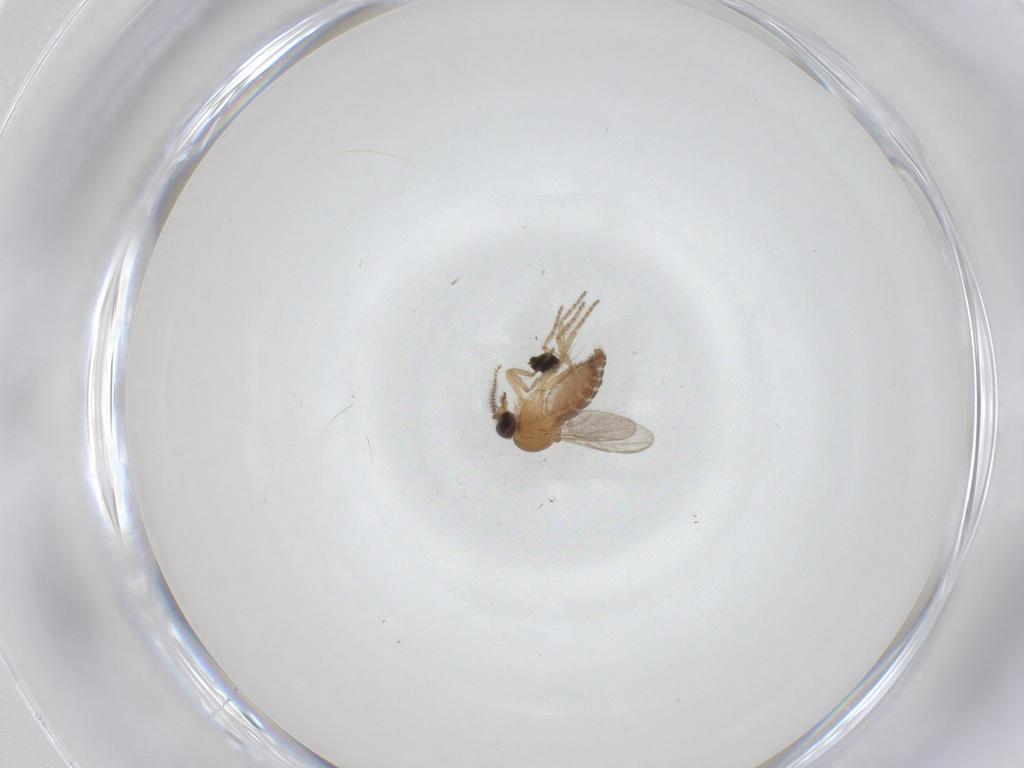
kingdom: Animalia
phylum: Arthropoda
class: Insecta
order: Diptera
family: Ceratopogonidae
